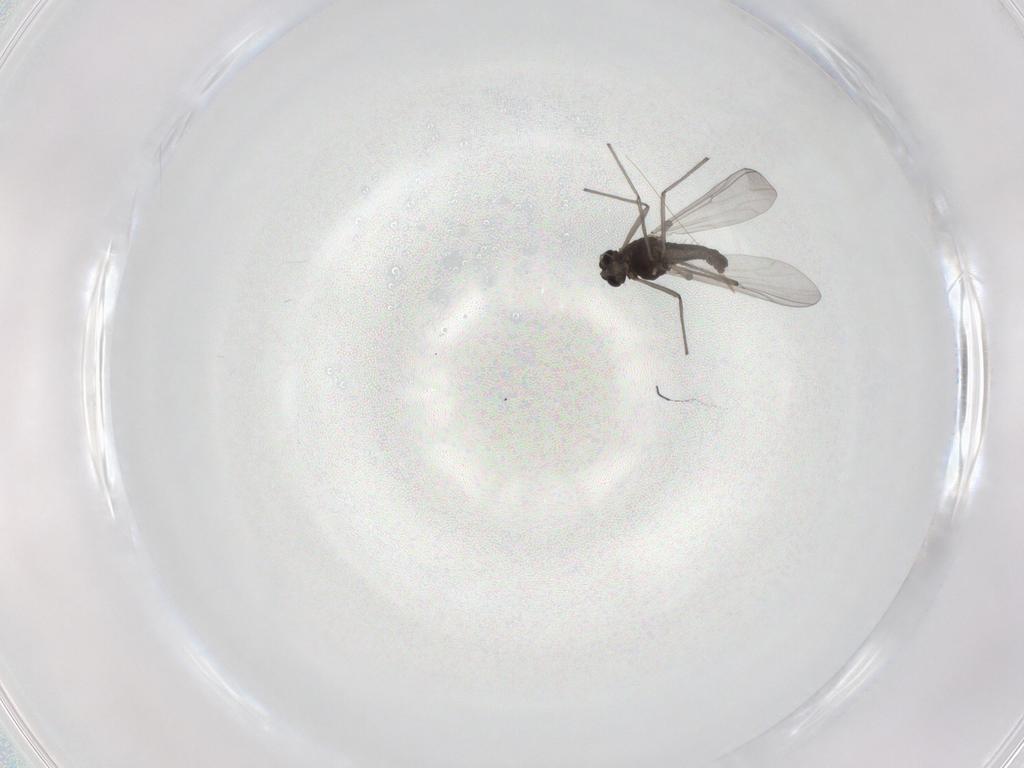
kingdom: Animalia
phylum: Arthropoda
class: Insecta
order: Diptera
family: Chironomidae
